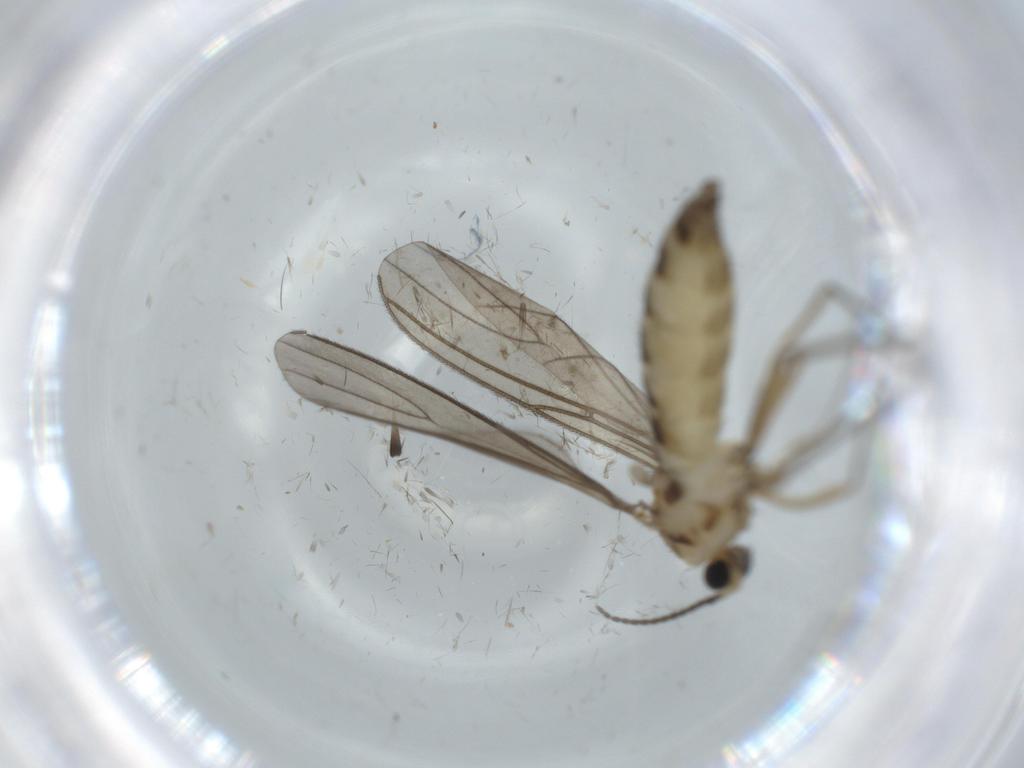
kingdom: Animalia
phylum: Arthropoda
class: Insecta
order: Diptera
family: Sciaridae
